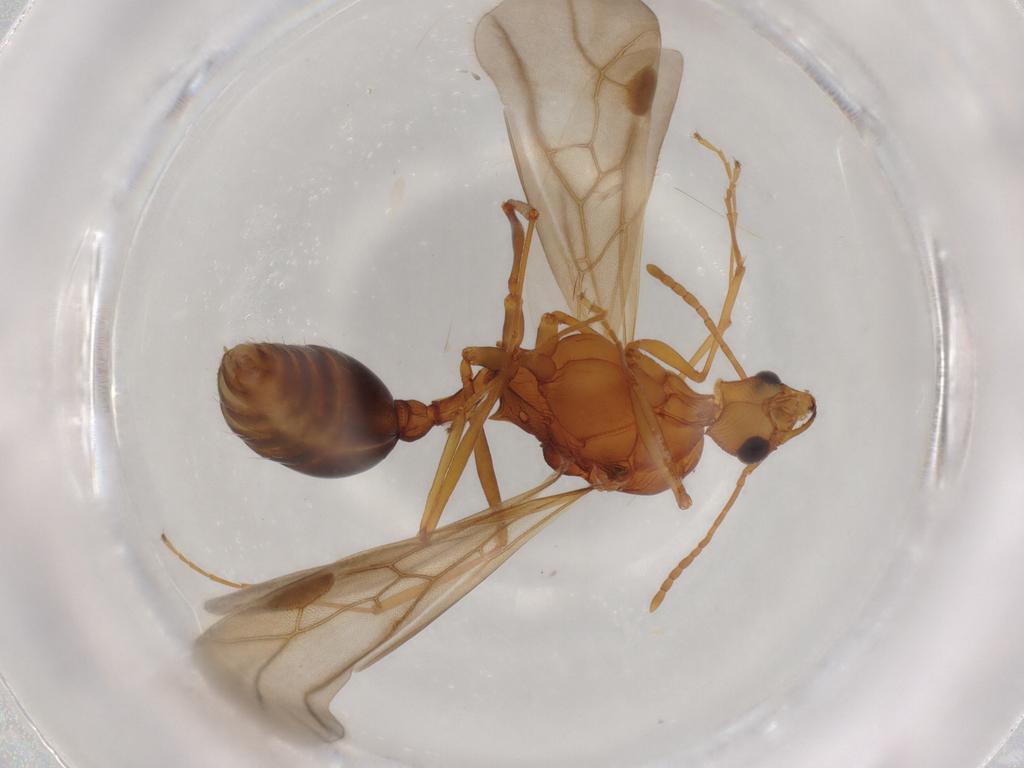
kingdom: Animalia
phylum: Arthropoda
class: Insecta
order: Hymenoptera
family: Formicidae
